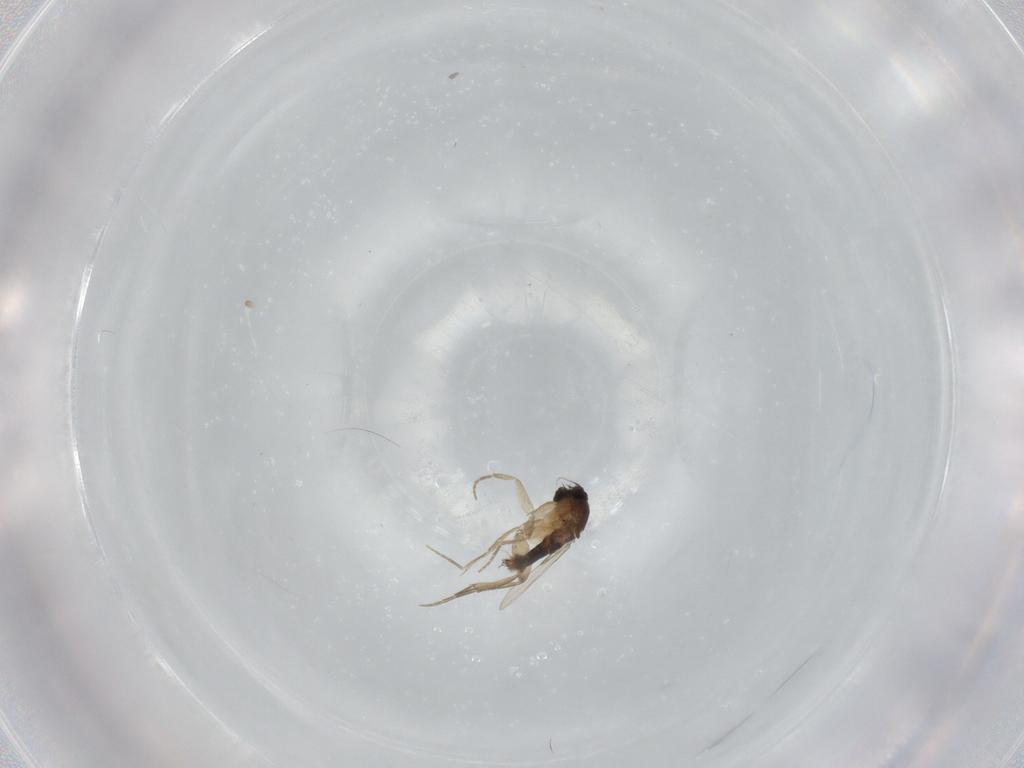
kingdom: Animalia
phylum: Arthropoda
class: Insecta
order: Diptera
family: Phoridae
